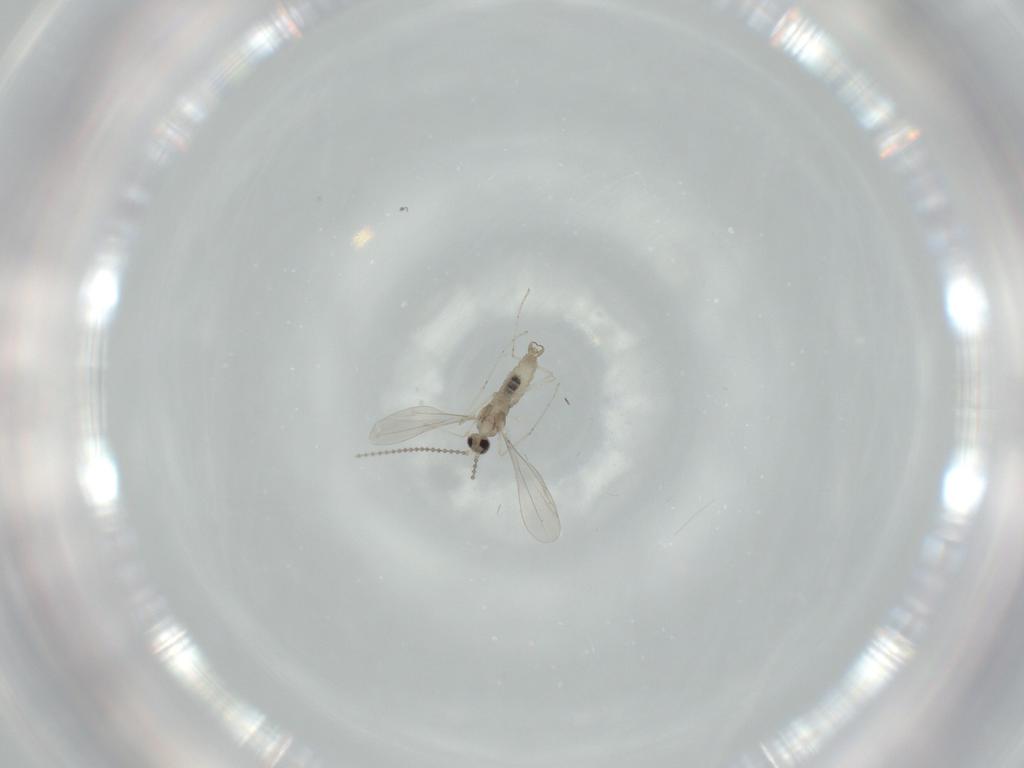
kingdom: Animalia
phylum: Arthropoda
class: Insecta
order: Diptera
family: Cecidomyiidae
